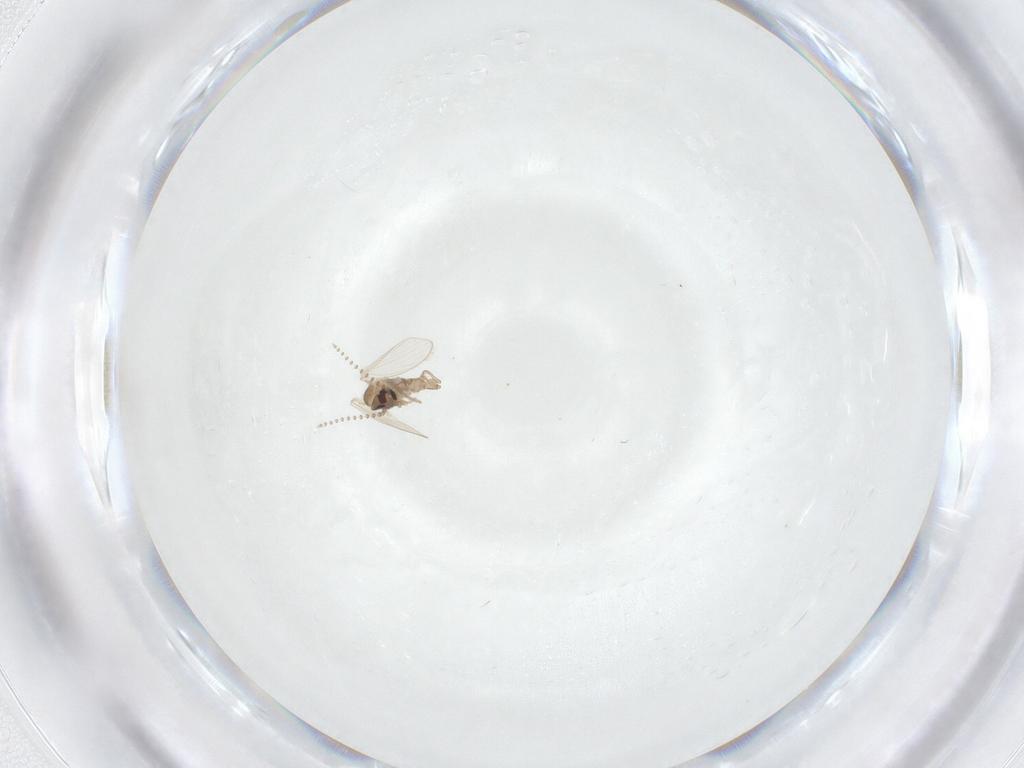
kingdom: Animalia
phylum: Arthropoda
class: Insecta
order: Diptera
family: Psychodidae
